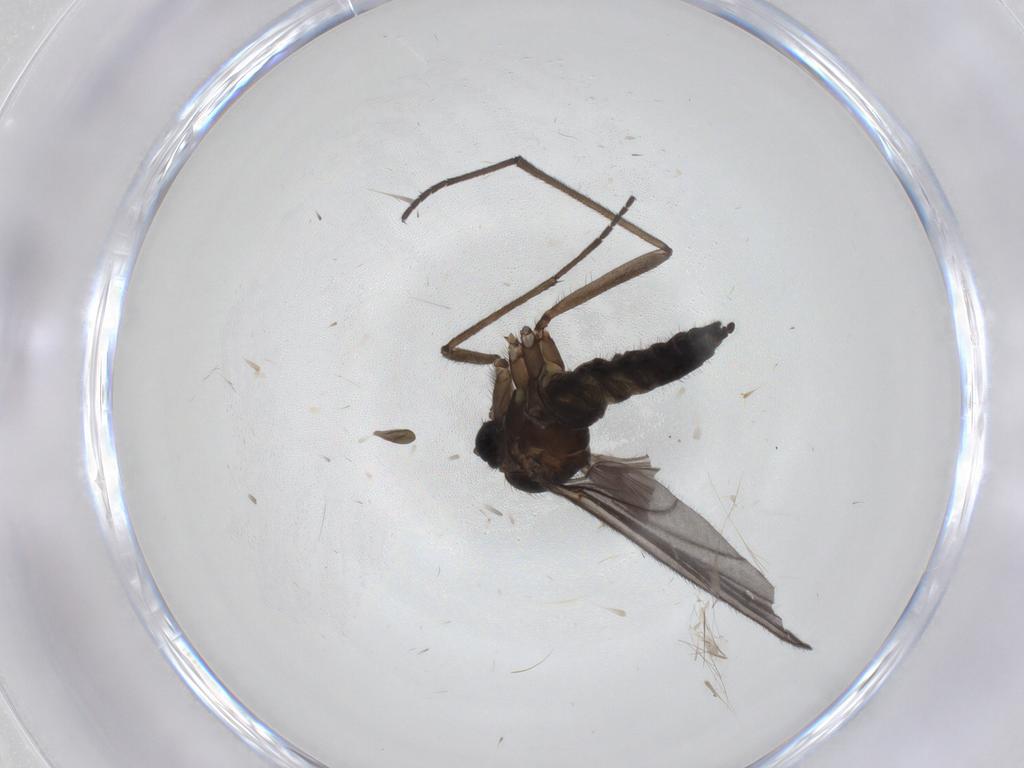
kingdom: Animalia
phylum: Arthropoda
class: Insecta
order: Diptera
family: Sciaridae
